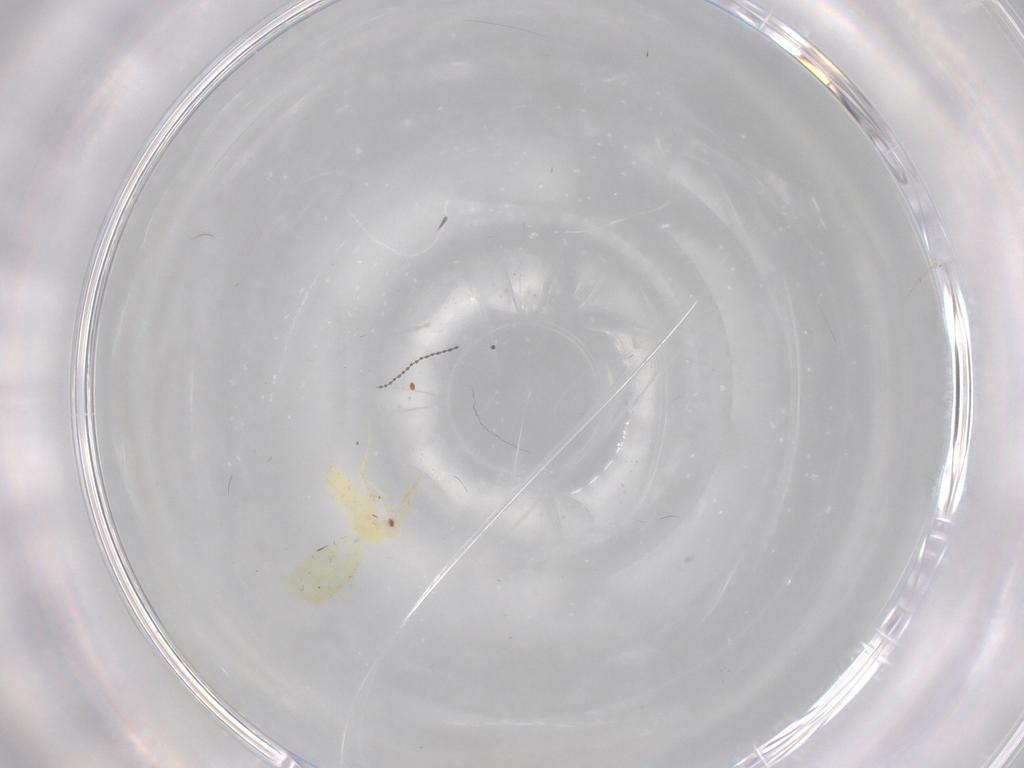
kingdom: Animalia
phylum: Arthropoda
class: Insecta
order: Hemiptera
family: Aleyrodidae
